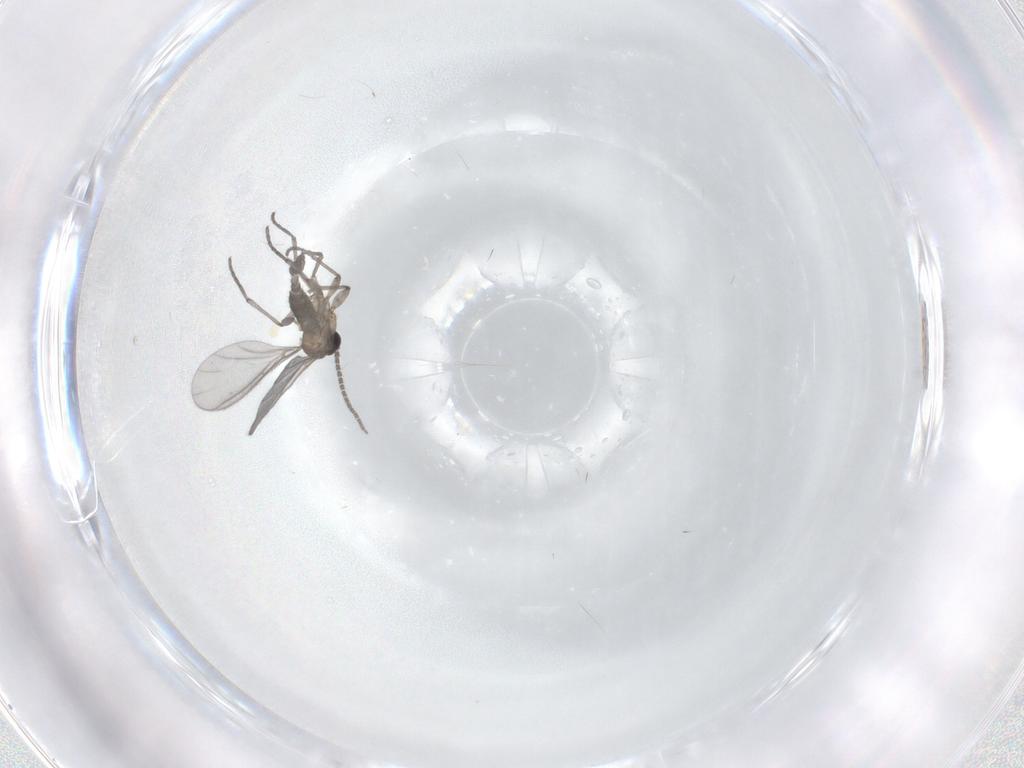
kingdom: Animalia
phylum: Arthropoda
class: Insecta
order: Diptera
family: Sciaridae
